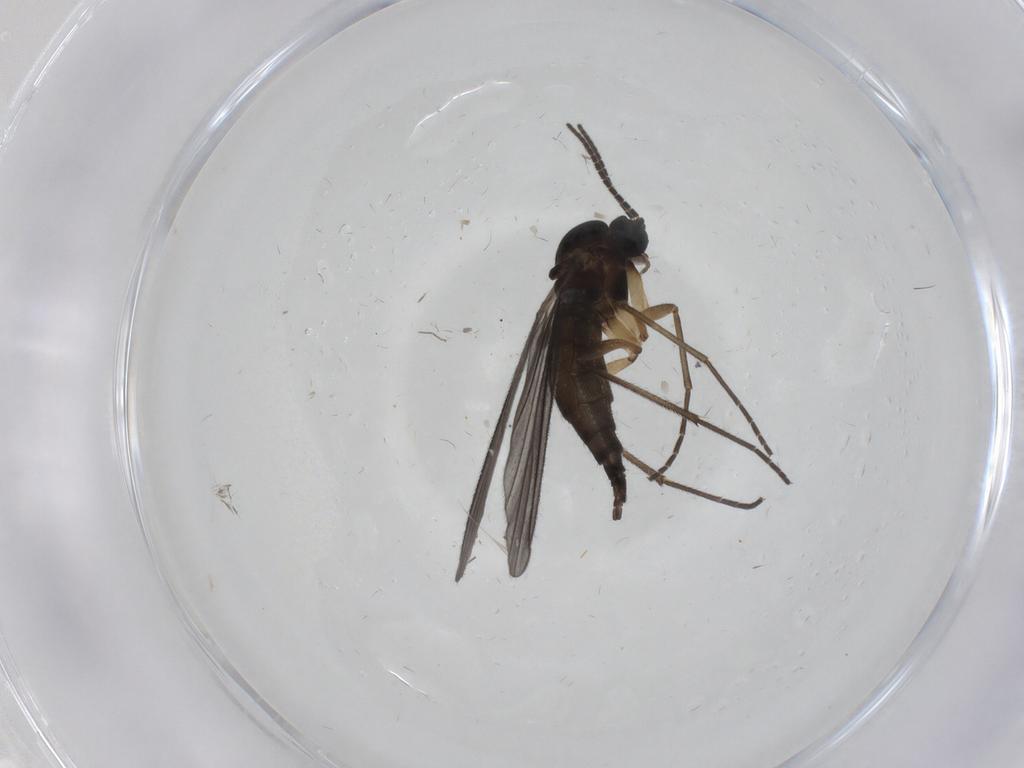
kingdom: Animalia
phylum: Arthropoda
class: Insecta
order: Diptera
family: Sciaridae
